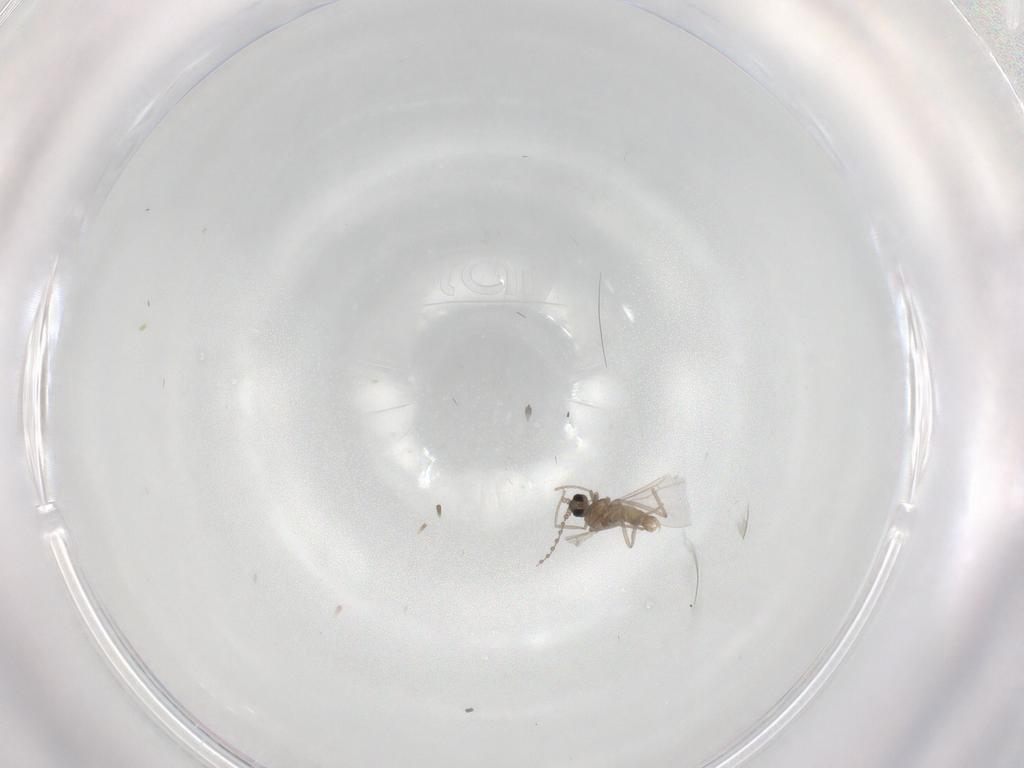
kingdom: Animalia
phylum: Arthropoda
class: Insecta
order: Diptera
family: Cecidomyiidae
